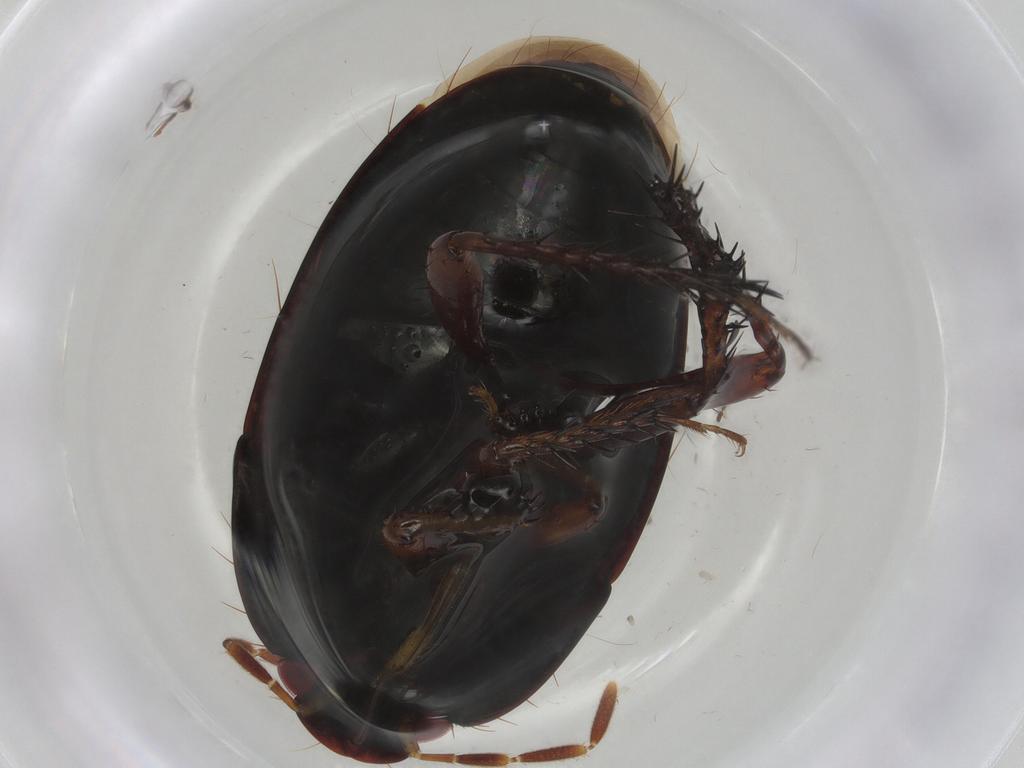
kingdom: Animalia
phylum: Arthropoda
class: Insecta
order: Hemiptera
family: Cydnidae
